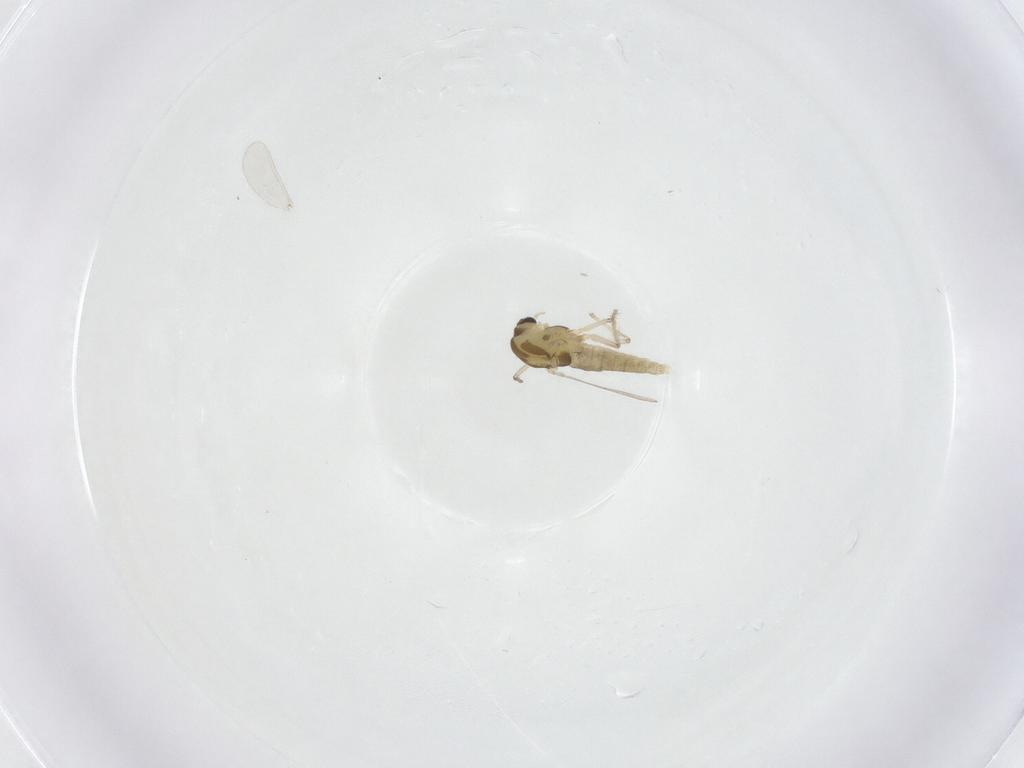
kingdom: Animalia
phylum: Arthropoda
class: Insecta
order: Diptera
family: Chironomidae
